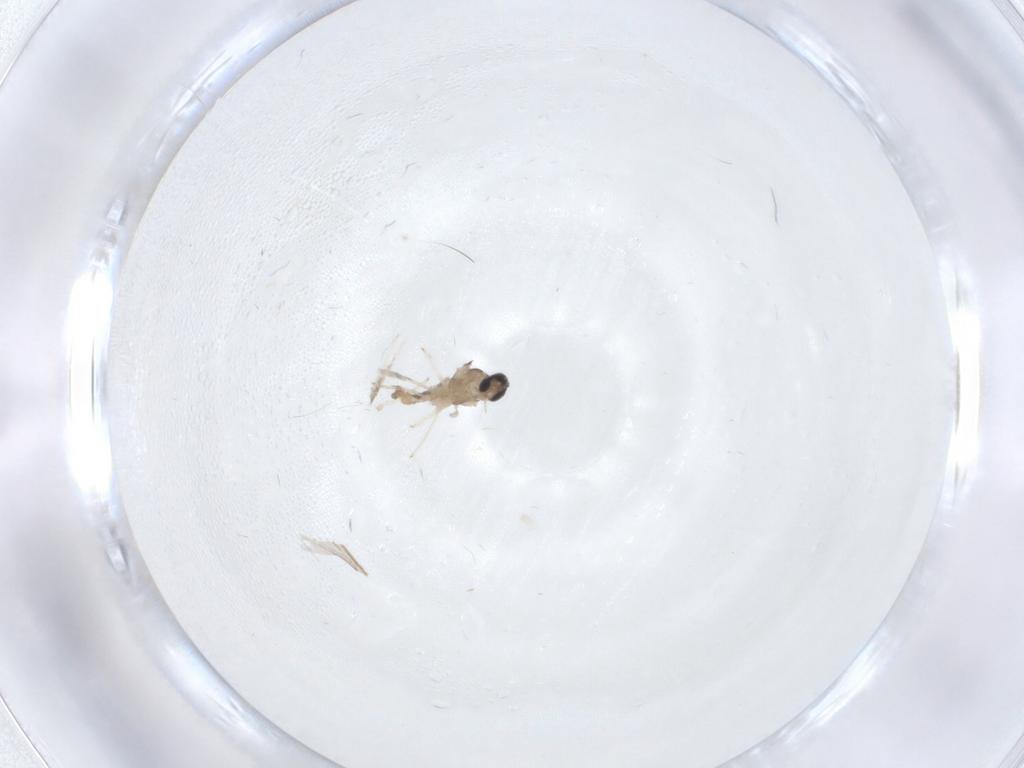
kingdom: Animalia
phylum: Arthropoda
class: Insecta
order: Diptera
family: Cecidomyiidae
